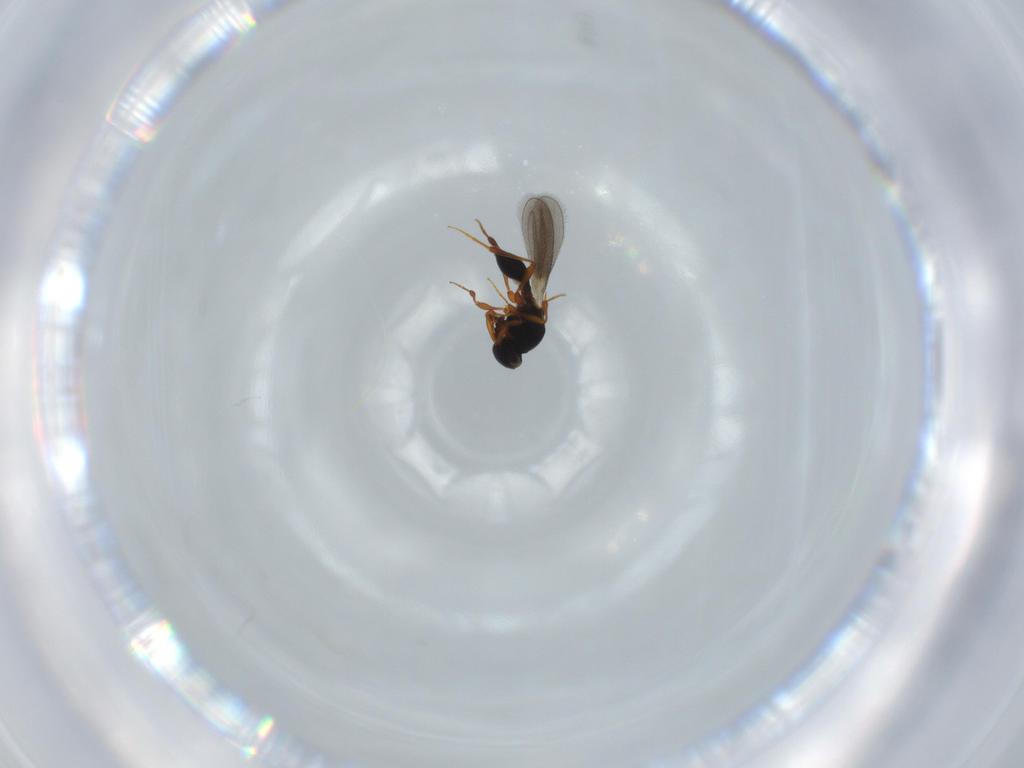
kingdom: Animalia
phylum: Arthropoda
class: Insecta
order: Hymenoptera
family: Platygastridae
